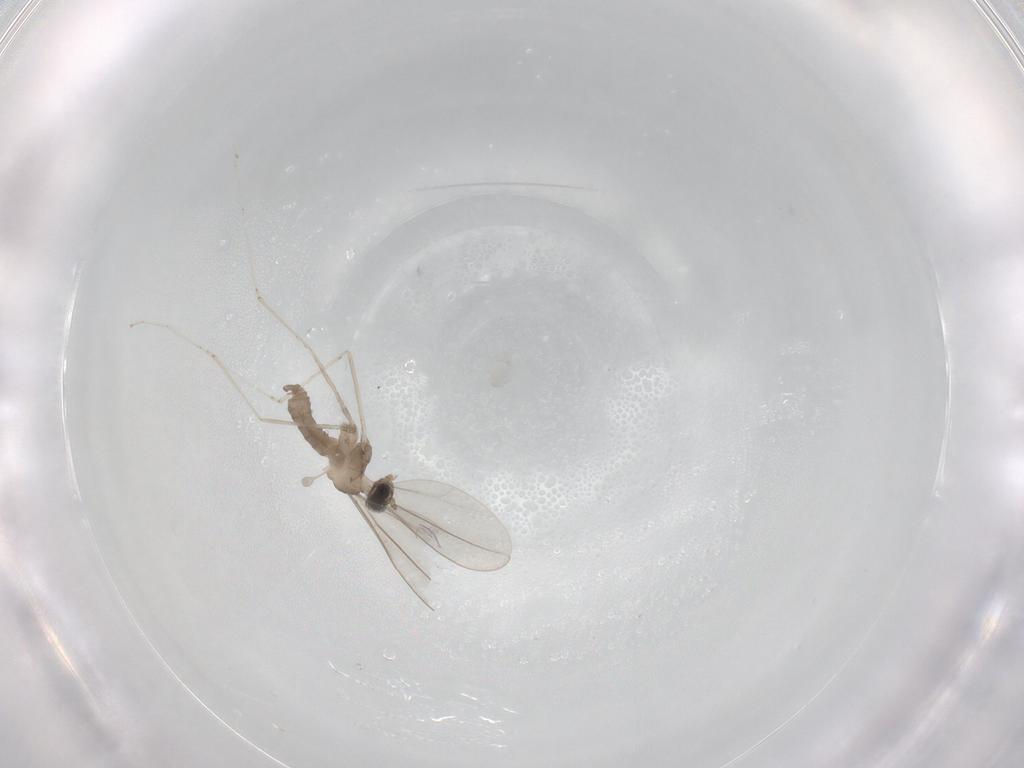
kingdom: Animalia
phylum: Arthropoda
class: Insecta
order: Diptera
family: Cecidomyiidae
